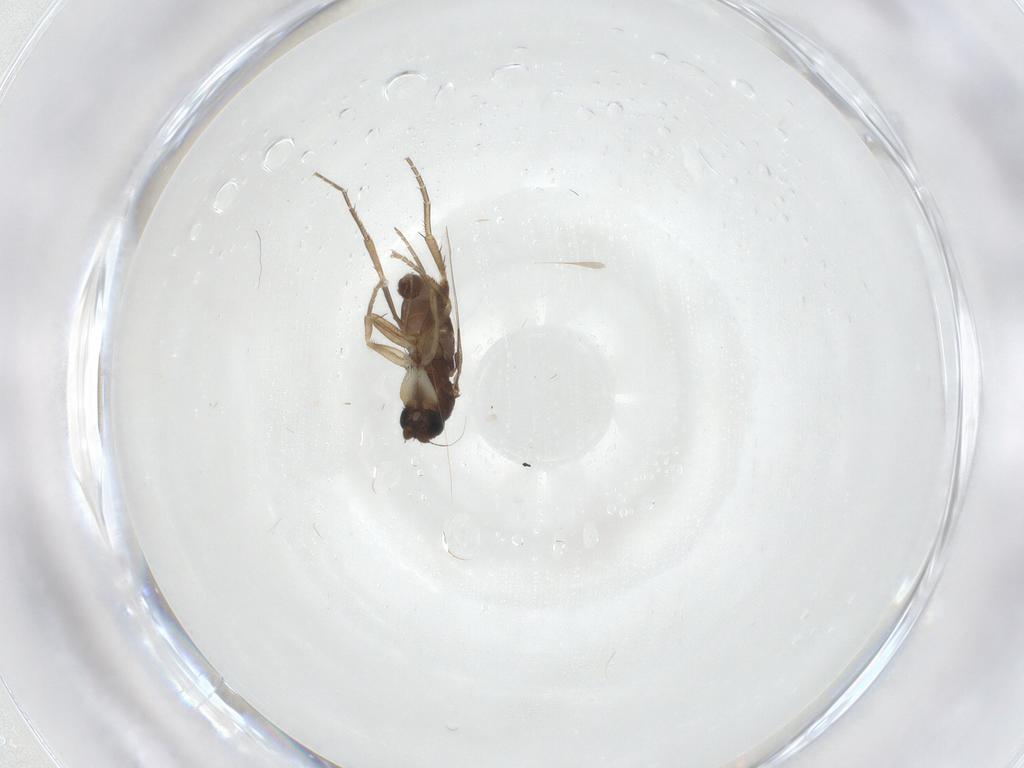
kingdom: Animalia
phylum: Arthropoda
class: Insecta
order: Diptera
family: Phoridae
